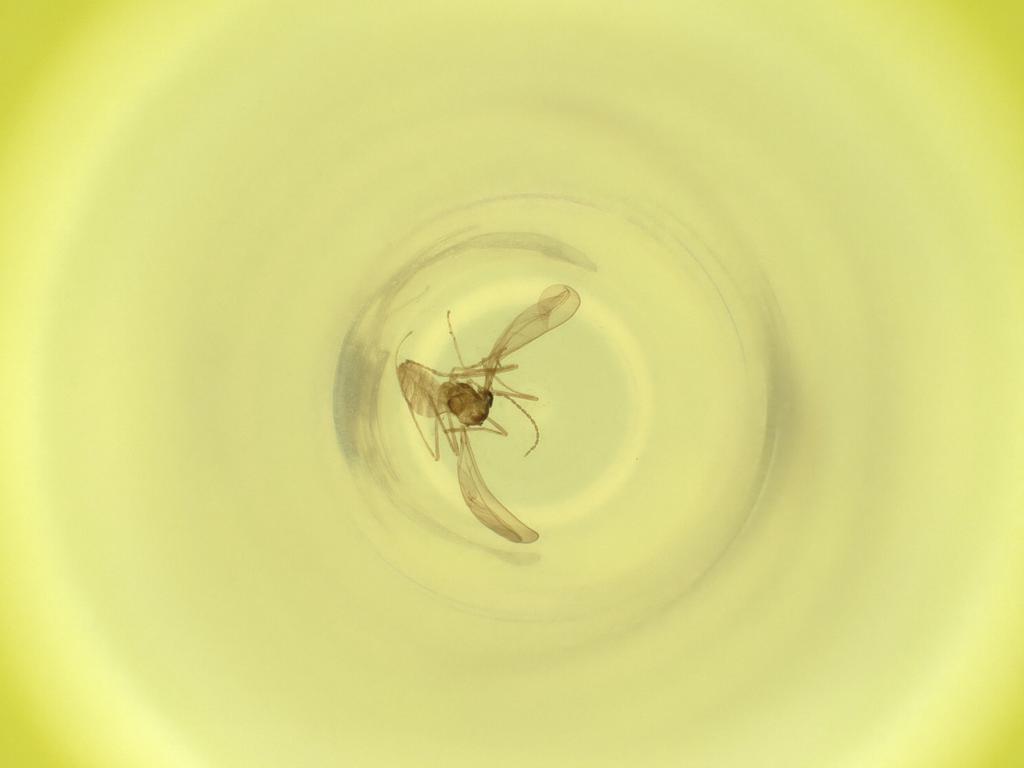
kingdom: Animalia
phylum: Arthropoda
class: Insecta
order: Diptera
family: Cecidomyiidae
